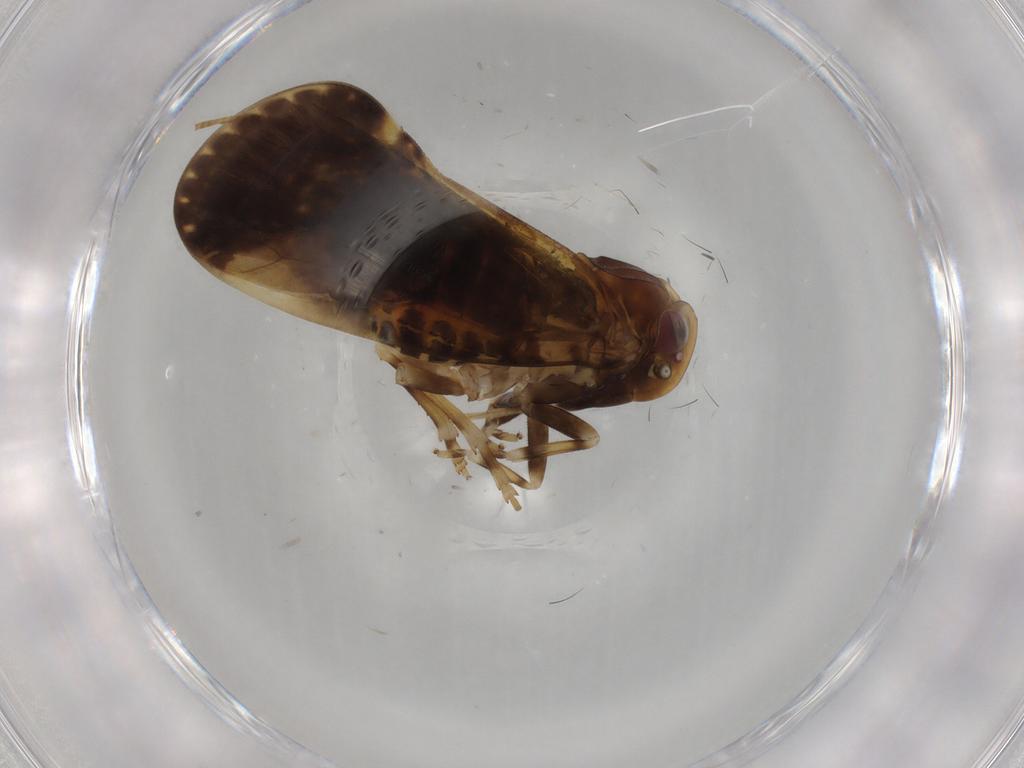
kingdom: Animalia
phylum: Arthropoda
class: Insecta
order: Hemiptera
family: Cixiidae
